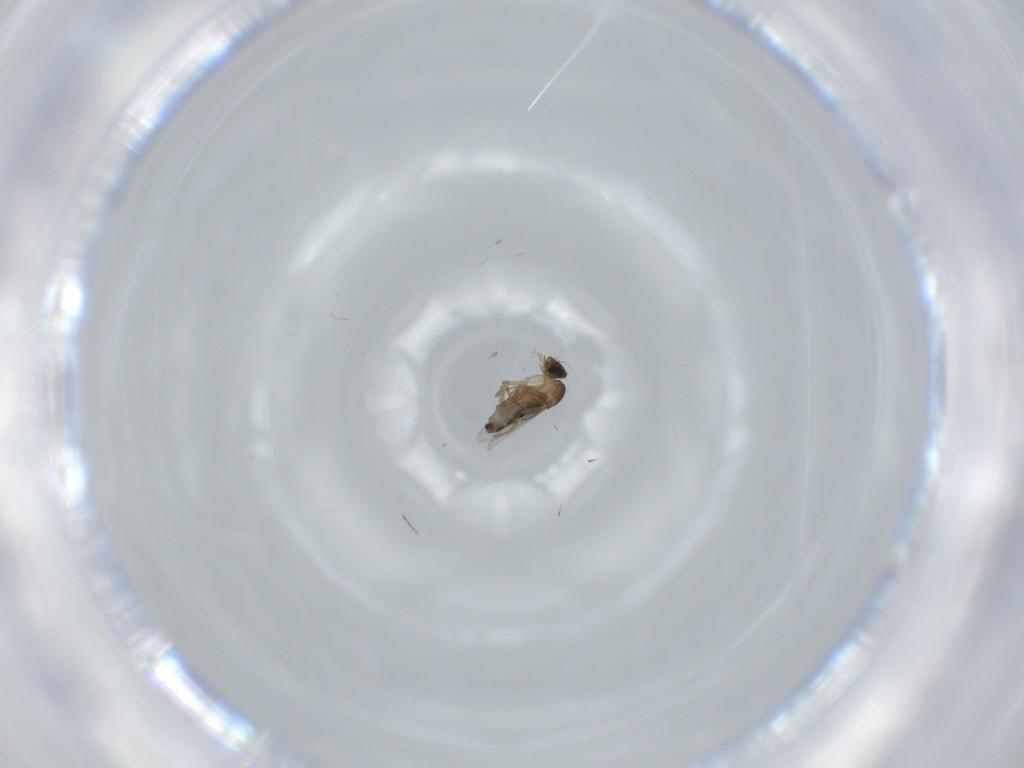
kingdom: Animalia
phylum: Arthropoda
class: Insecta
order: Diptera
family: Phoridae
